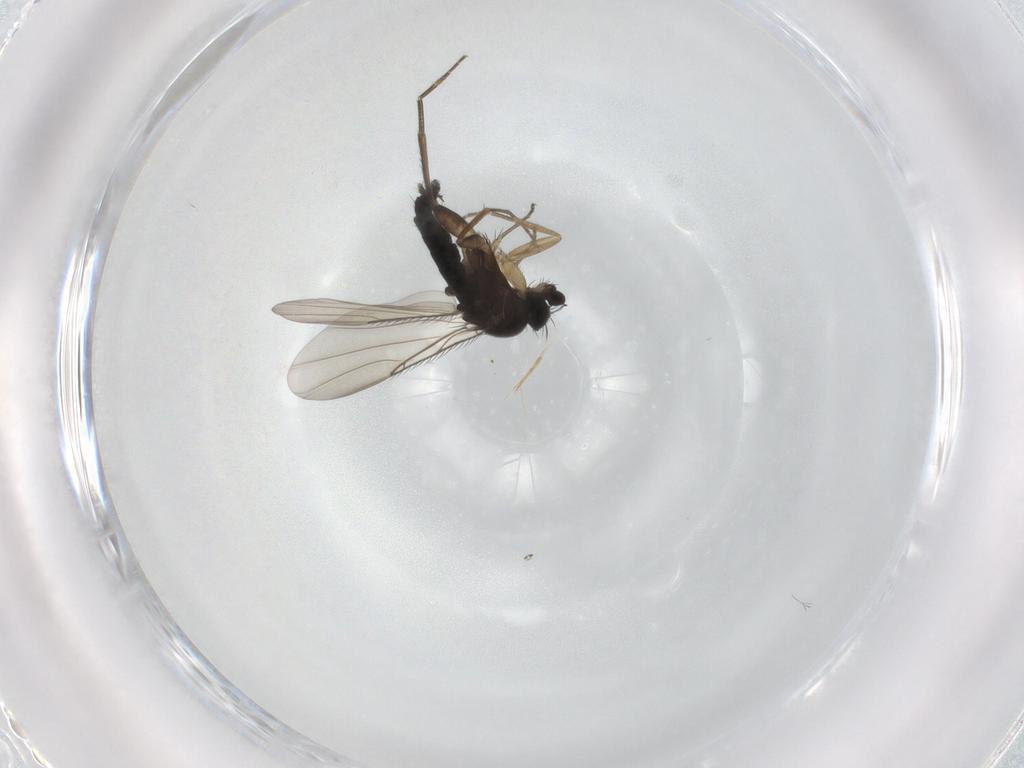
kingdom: Animalia
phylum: Arthropoda
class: Insecta
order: Diptera
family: Phoridae
